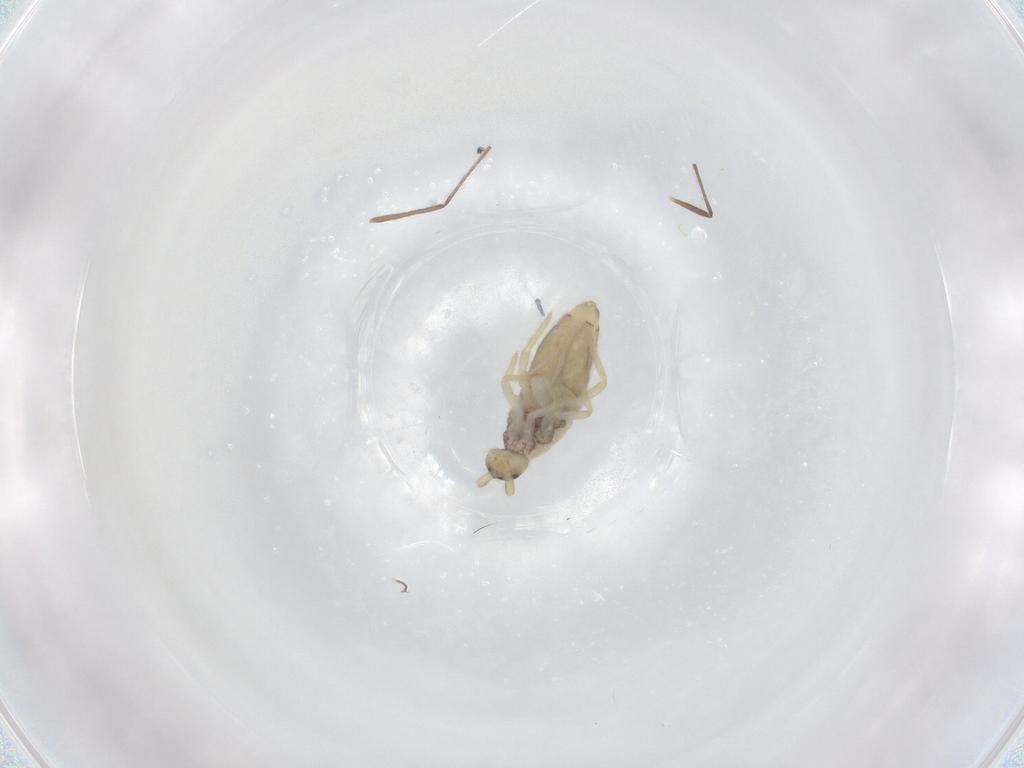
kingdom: Animalia
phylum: Arthropoda
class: Collembola
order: Entomobryomorpha
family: Entomobryidae
